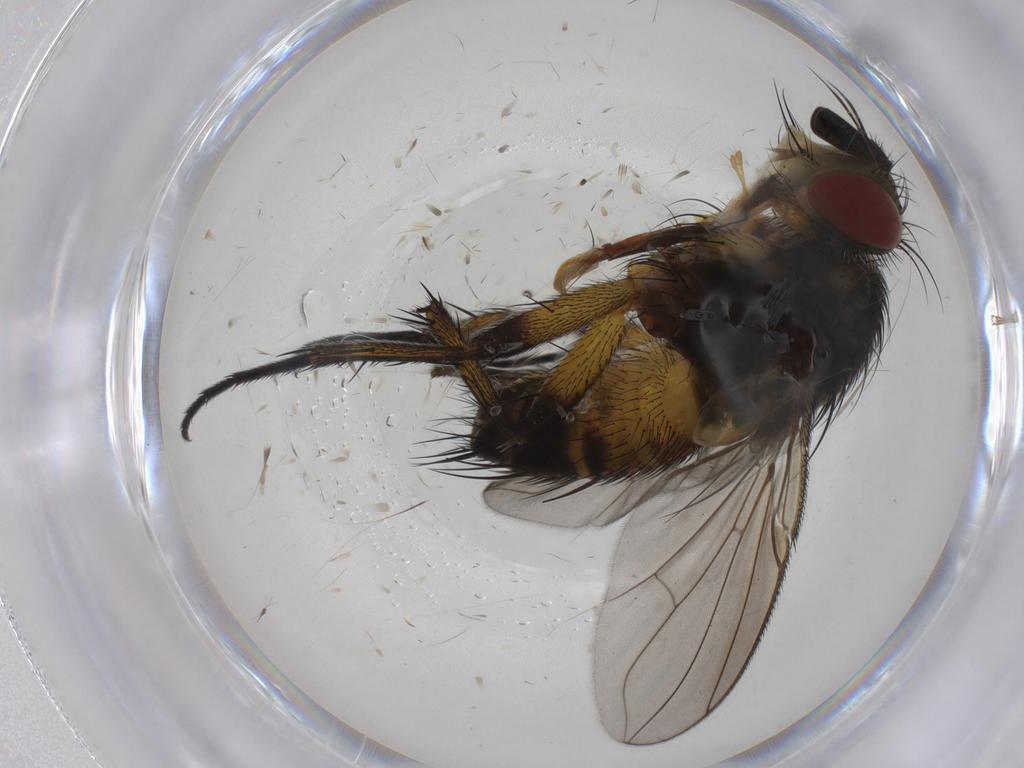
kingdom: Animalia
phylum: Arthropoda
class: Insecta
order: Diptera
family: Tachinidae
